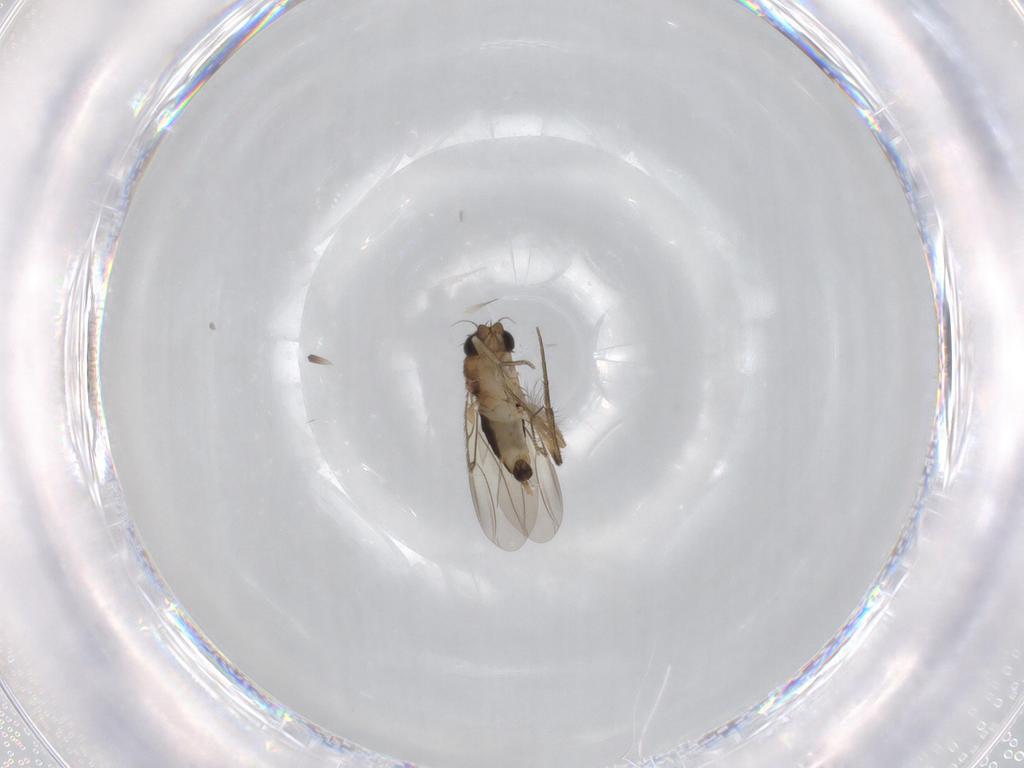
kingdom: Animalia
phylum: Arthropoda
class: Insecta
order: Diptera
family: Phoridae
